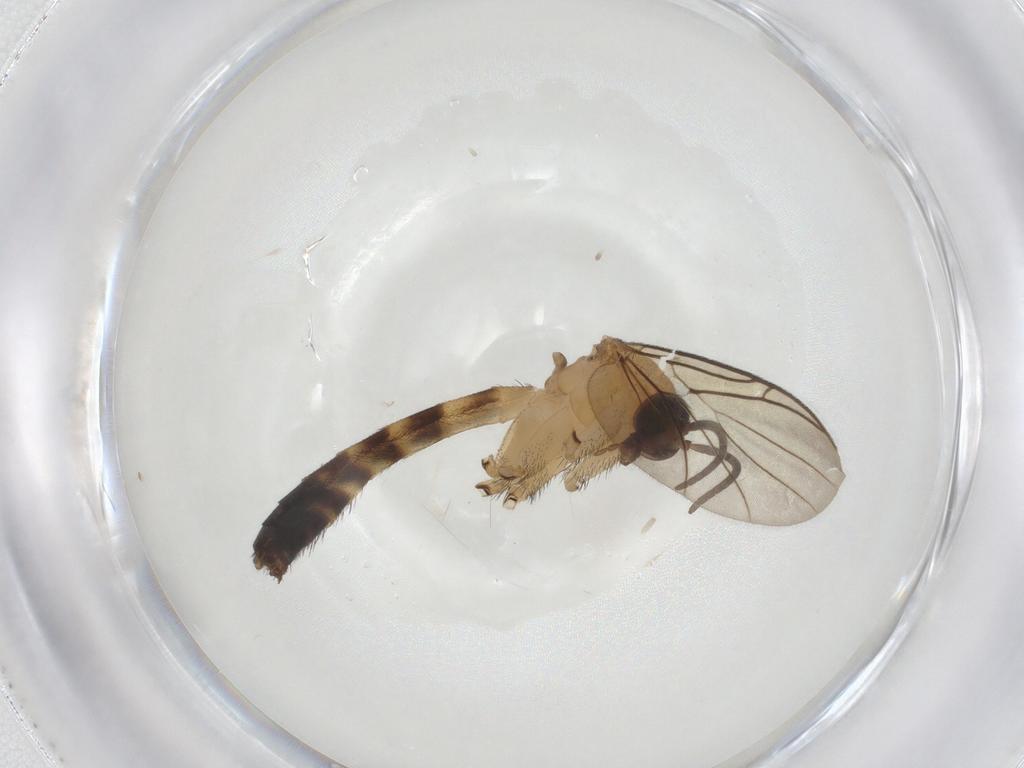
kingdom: Animalia
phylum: Arthropoda
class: Insecta
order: Diptera
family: Keroplatidae
